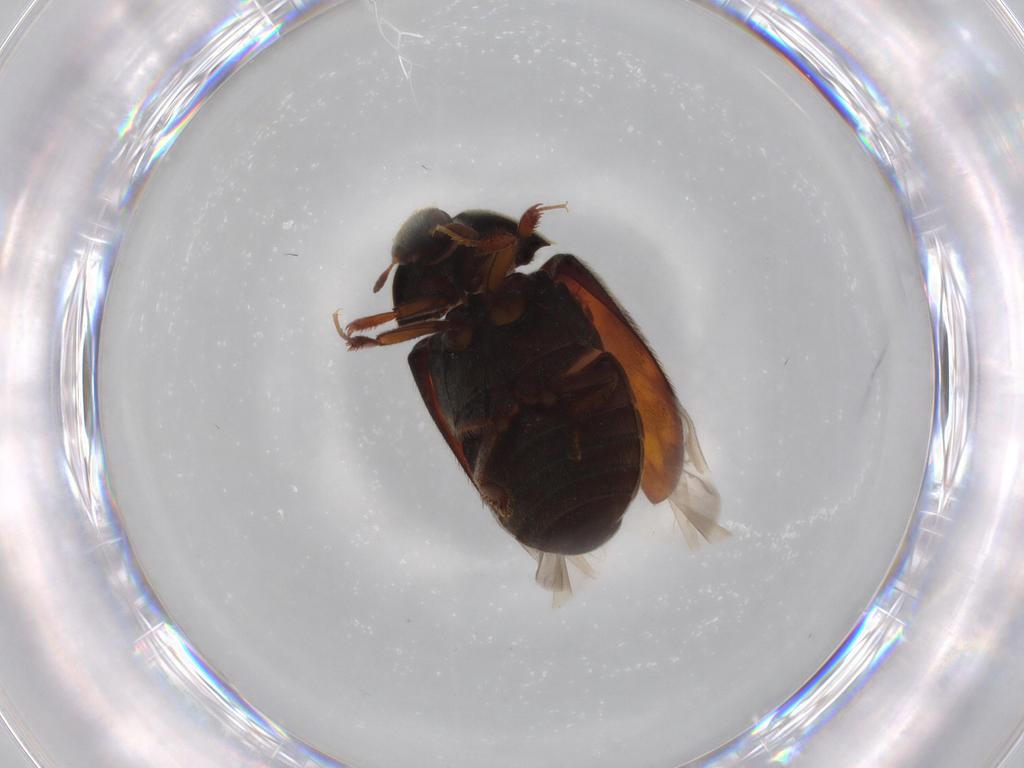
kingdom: Animalia
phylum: Arthropoda
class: Insecta
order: Coleoptera
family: Dermestidae
